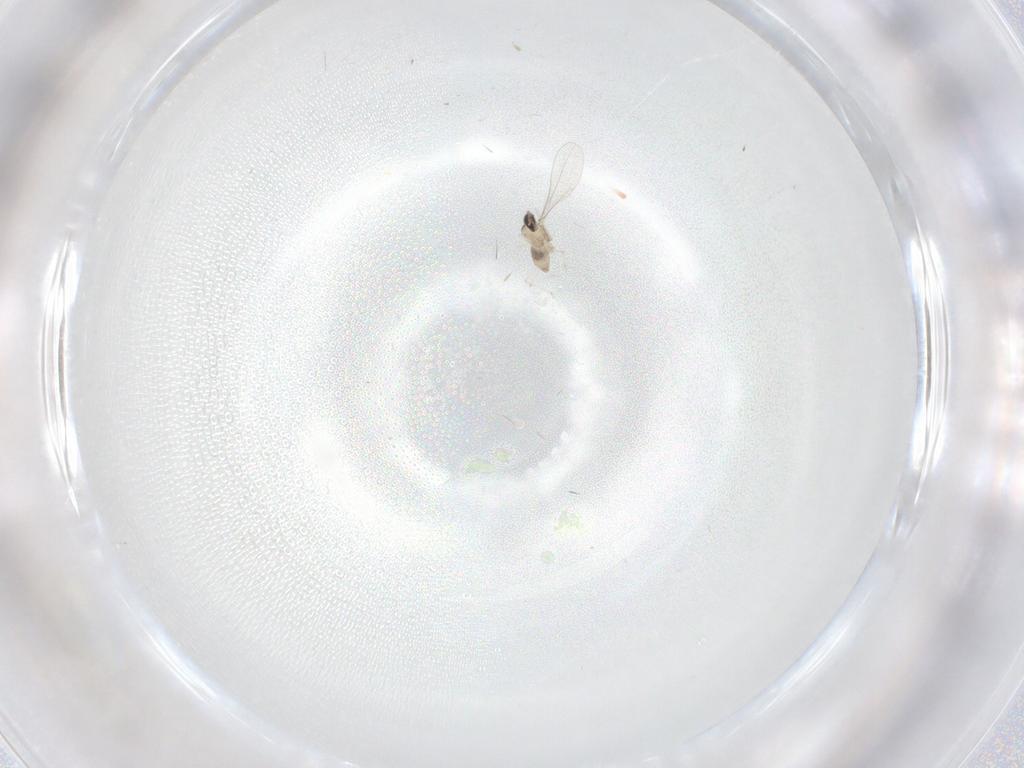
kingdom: Animalia
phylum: Arthropoda
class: Insecta
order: Diptera
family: Cecidomyiidae
